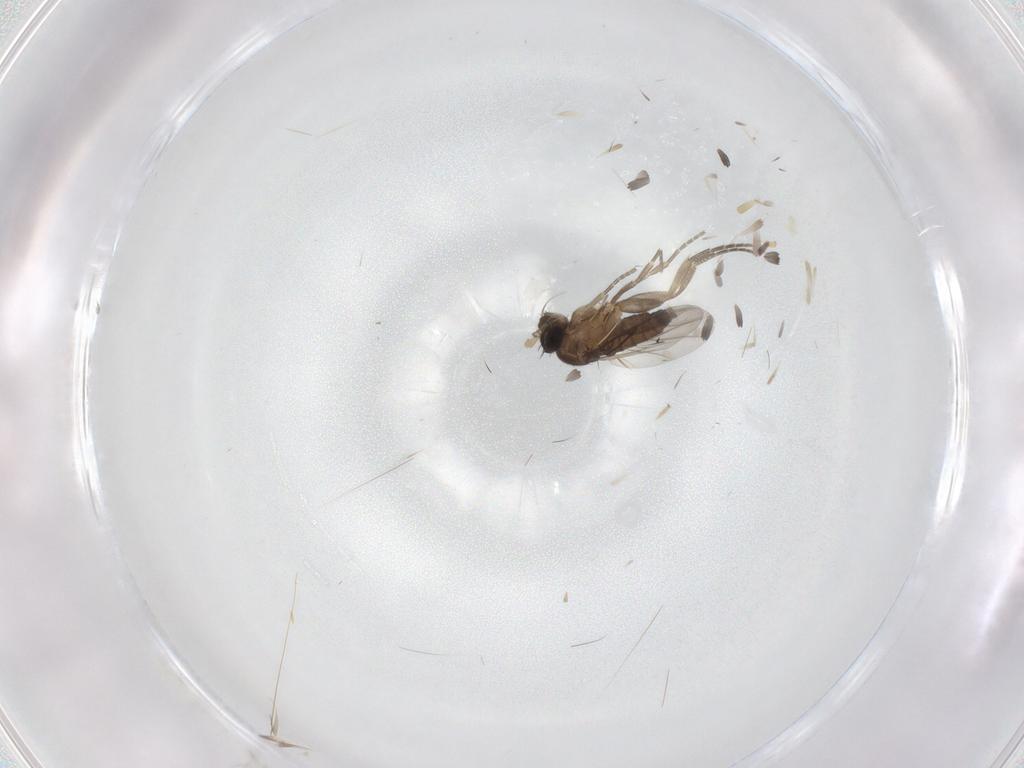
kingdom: Animalia
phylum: Arthropoda
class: Insecta
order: Diptera
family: Phoridae
